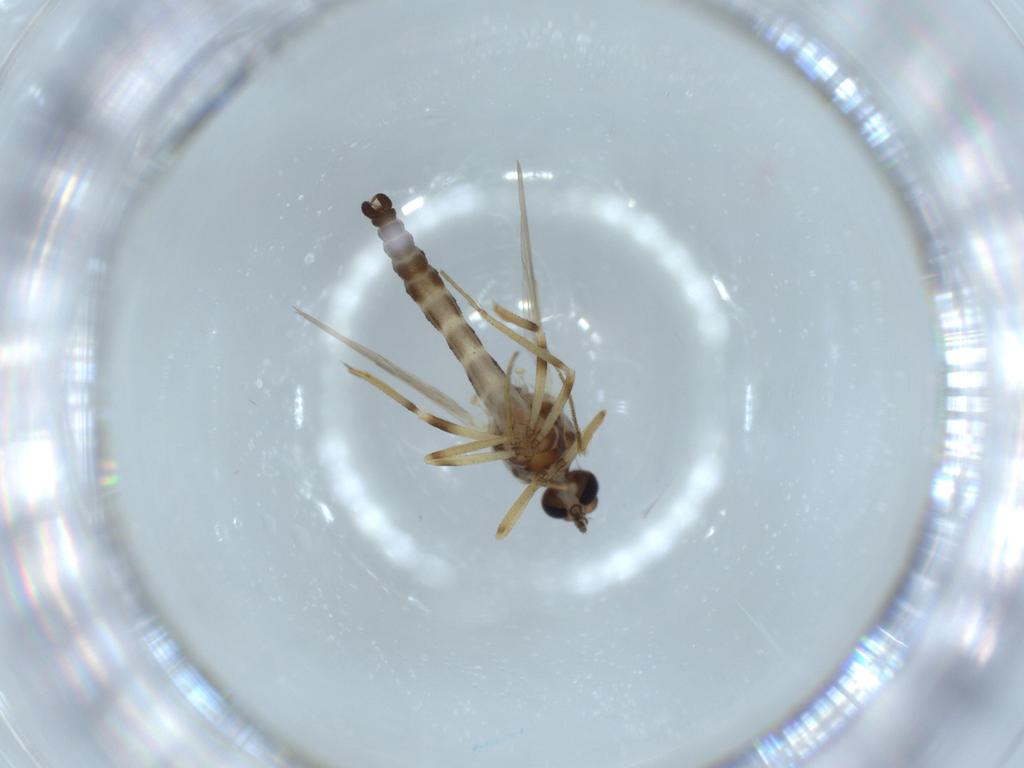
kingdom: Animalia
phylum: Arthropoda
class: Insecta
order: Diptera
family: Ceratopogonidae
